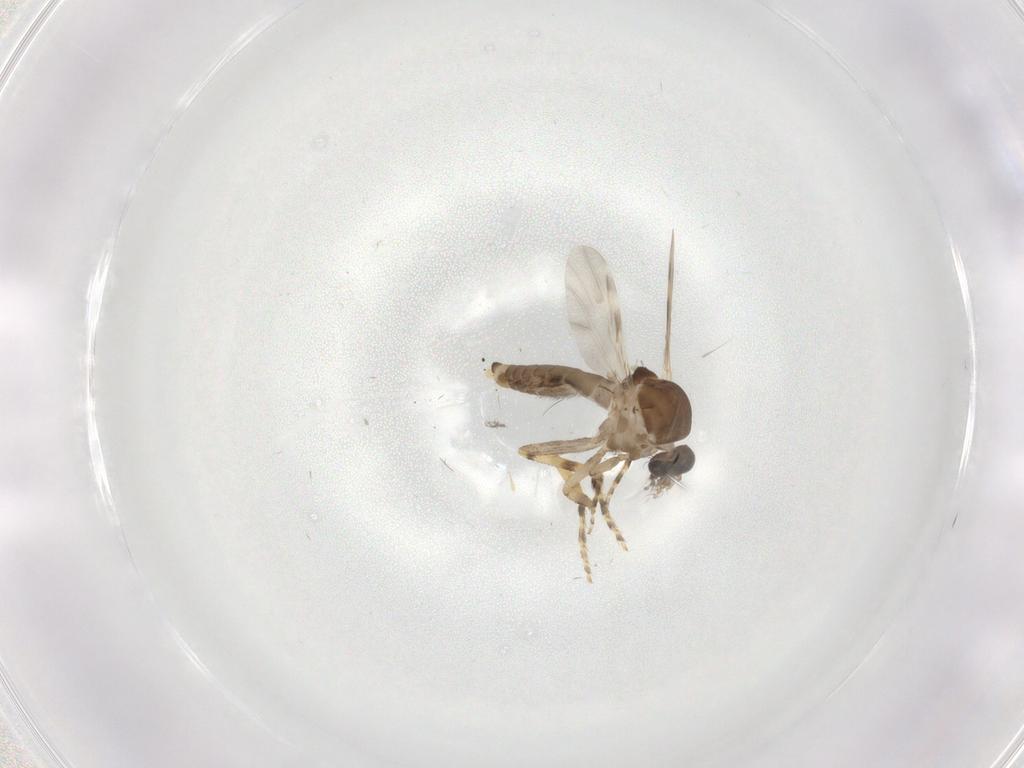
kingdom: Animalia
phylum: Arthropoda
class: Insecta
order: Diptera
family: Ceratopogonidae
